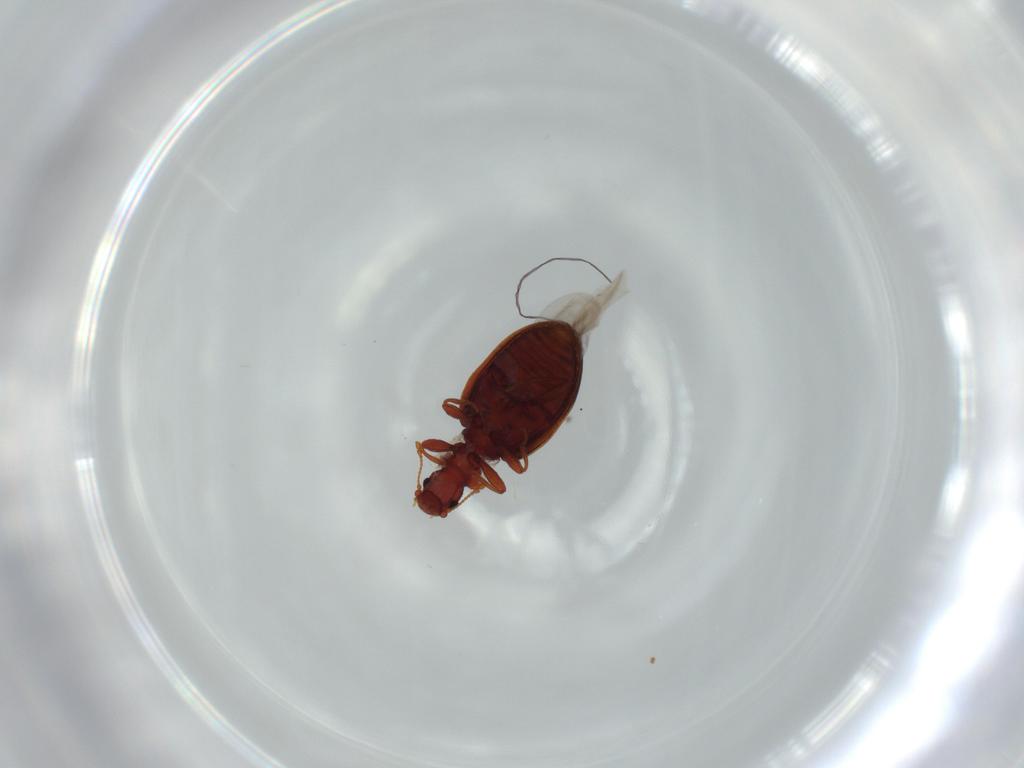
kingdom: Animalia
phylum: Arthropoda
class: Insecta
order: Coleoptera
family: Latridiidae
